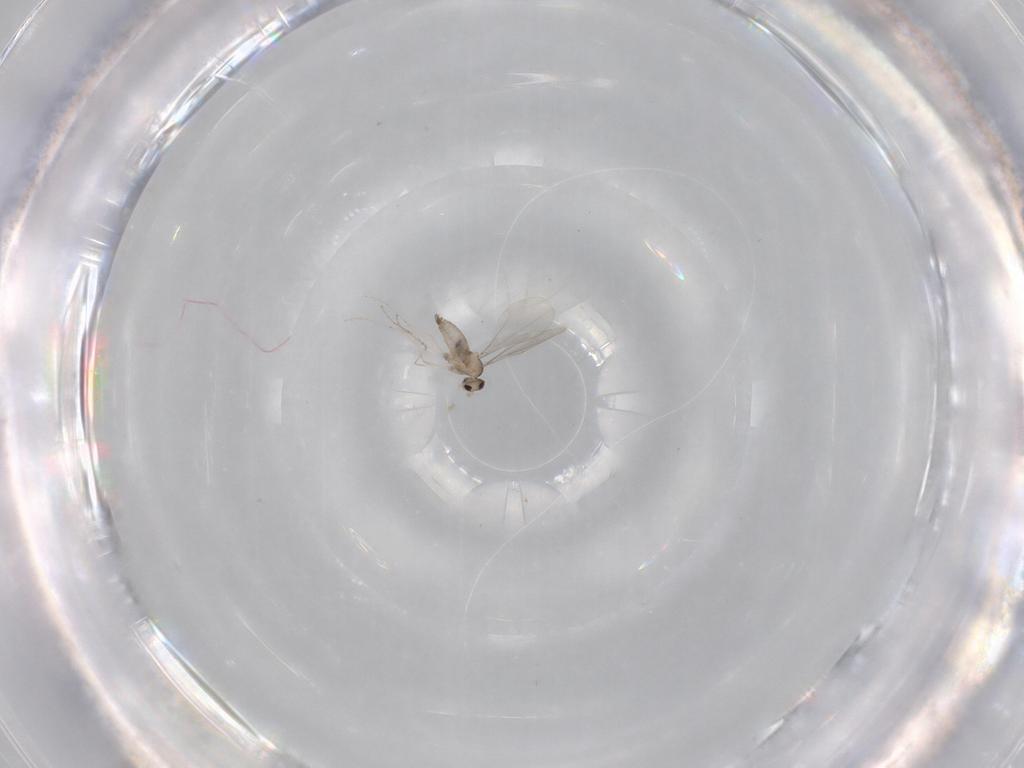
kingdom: Animalia
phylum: Arthropoda
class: Insecta
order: Diptera
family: Cecidomyiidae
